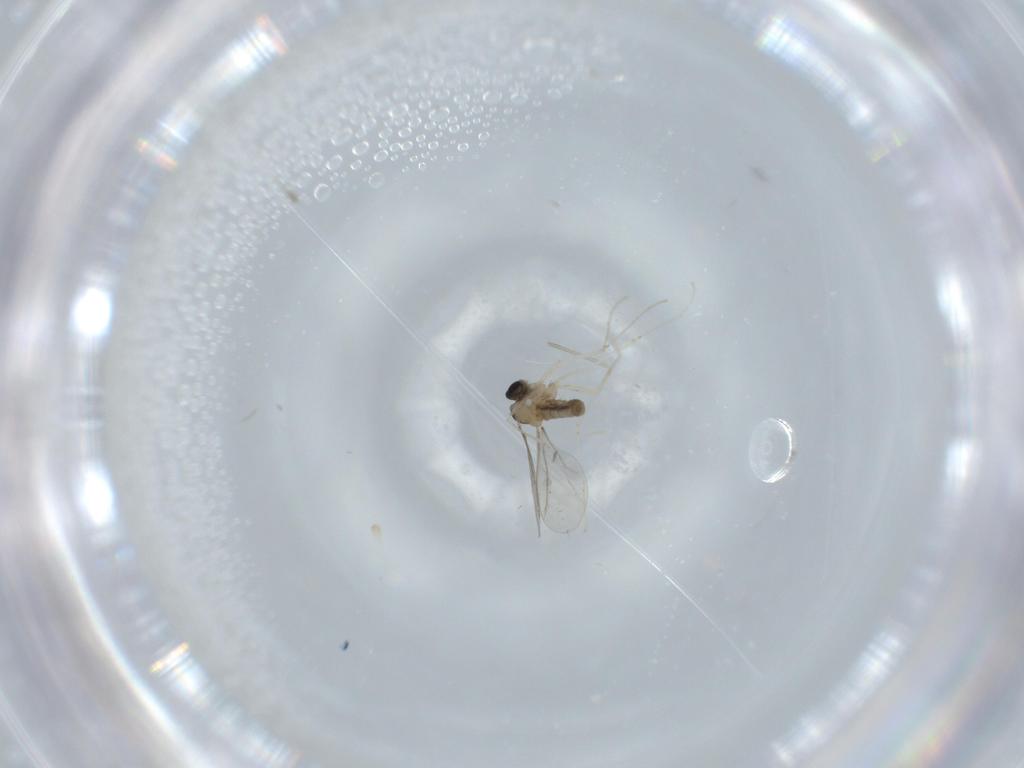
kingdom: Animalia
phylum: Arthropoda
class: Insecta
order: Diptera
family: Cecidomyiidae
